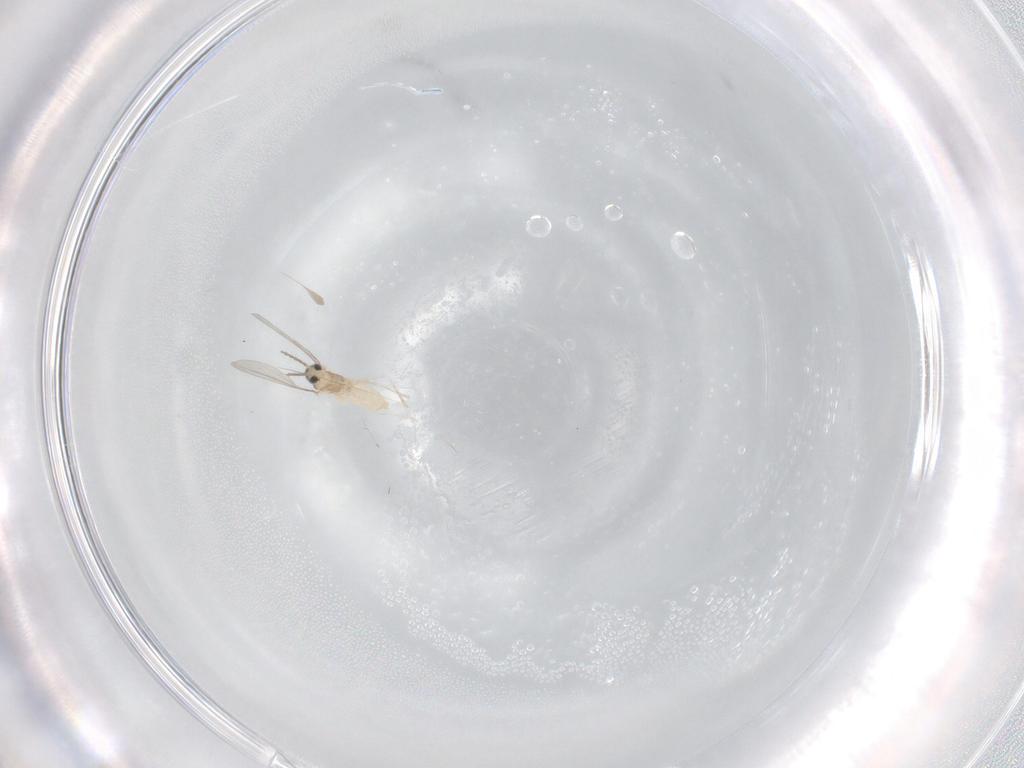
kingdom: Animalia
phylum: Arthropoda
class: Insecta
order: Diptera
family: Cecidomyiidae
